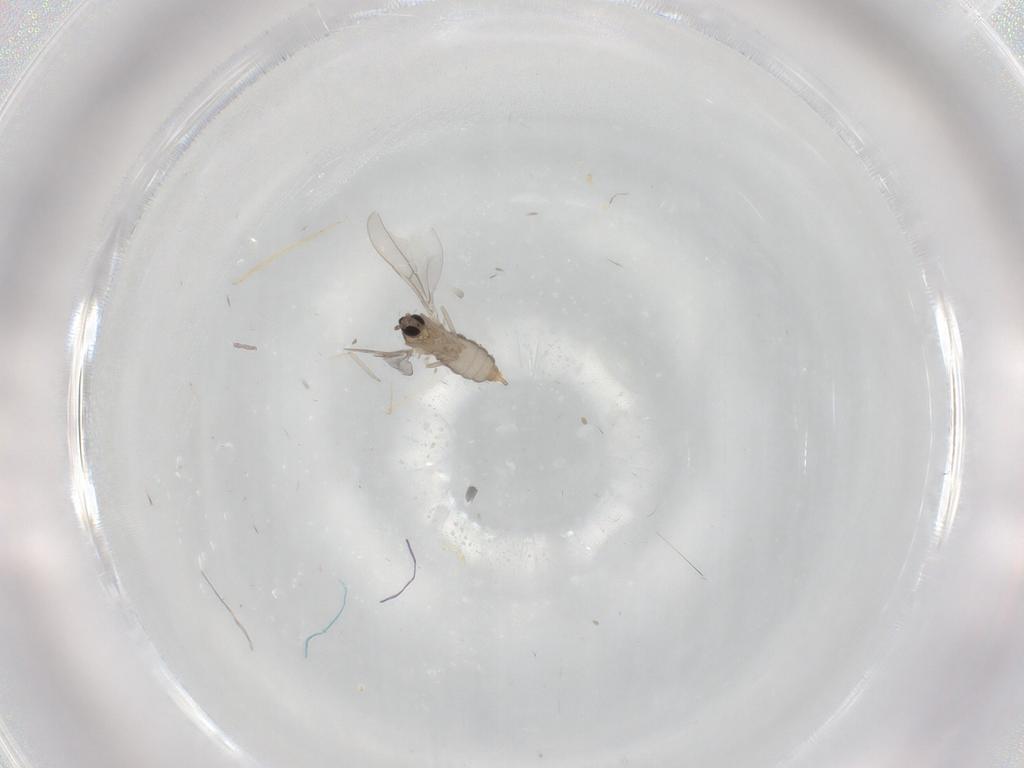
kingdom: Animalia
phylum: Arthropoda
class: Insecta
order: Diptera
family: Cecidomyiidae
